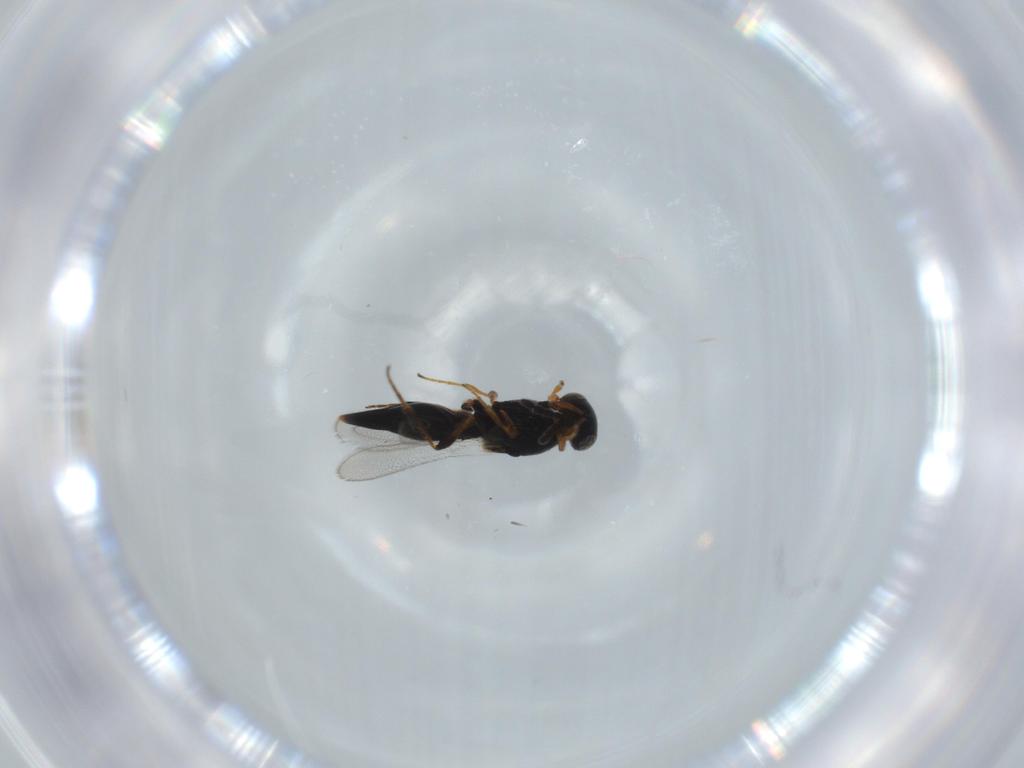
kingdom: Animalia
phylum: Arthropoda
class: Insecta
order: Hymenoptera
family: Platygastridae
